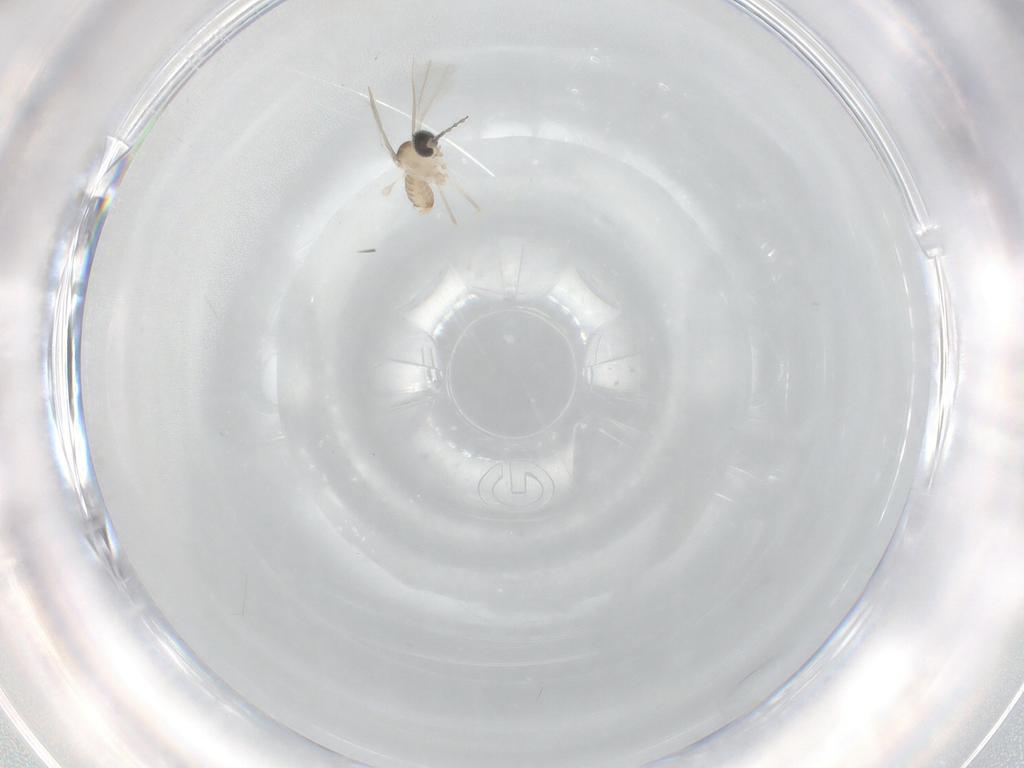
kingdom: Animalia
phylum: Arthropoda
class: Insecta
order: Diptera
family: Cecidomyiidae
